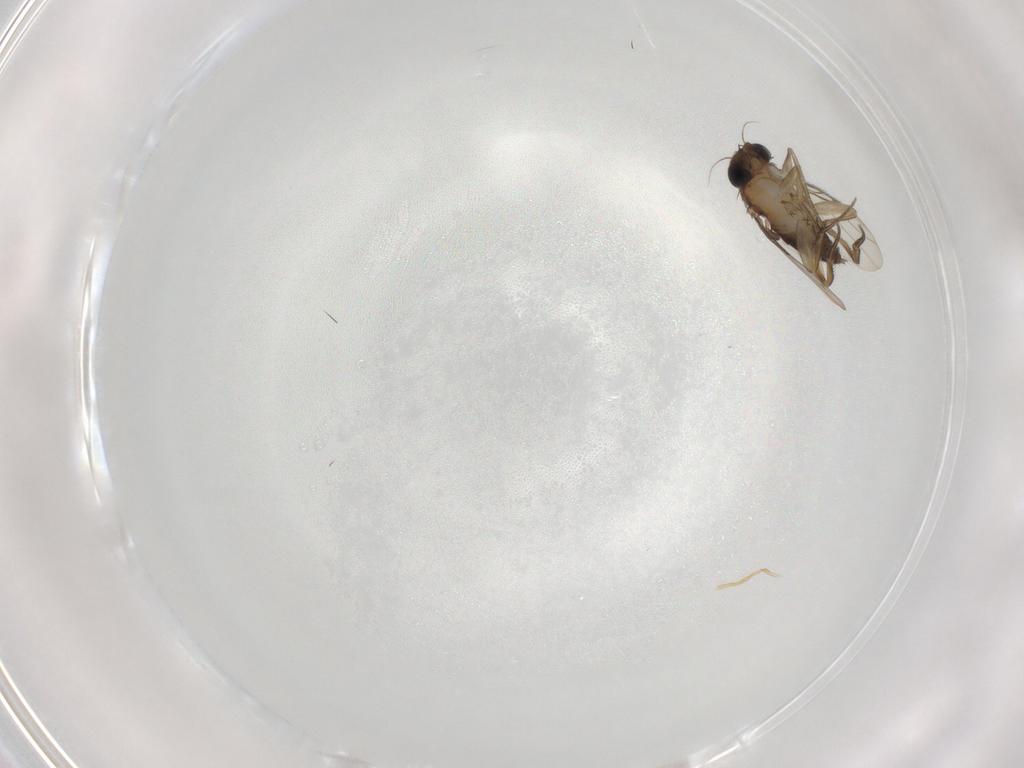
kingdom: Animalia
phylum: Arthropoda
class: Insecta
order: Diptera
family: Phoridae
